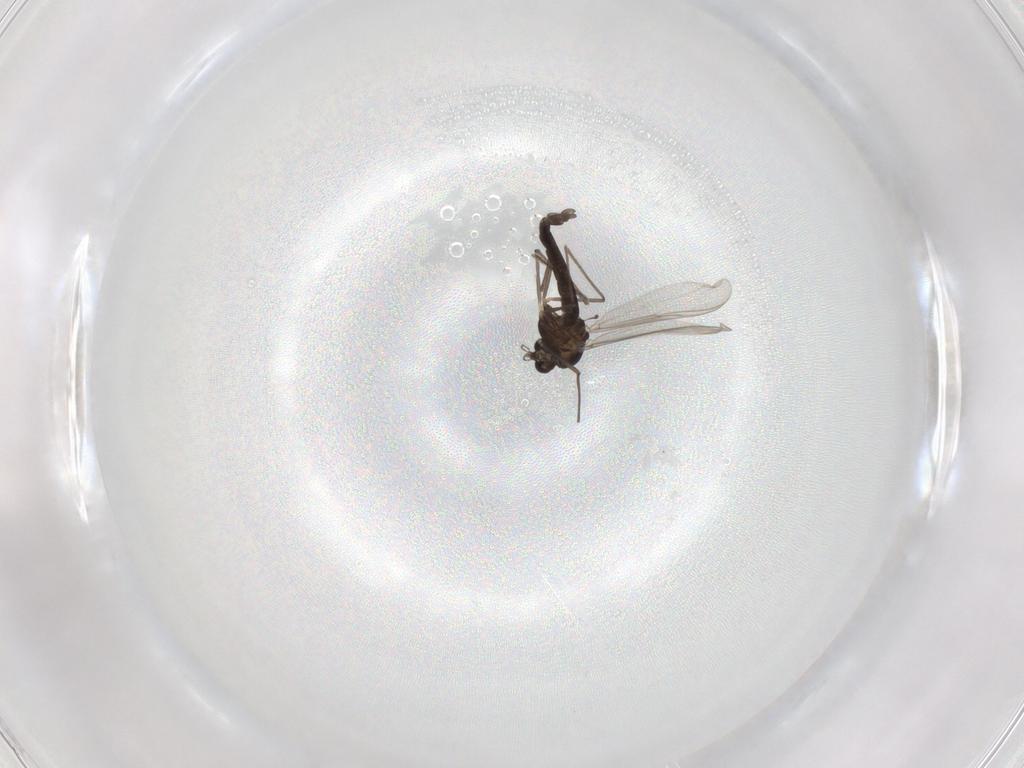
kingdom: Animalia
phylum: Arthropoda
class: Insecta
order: Diptera
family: Chironomidae
